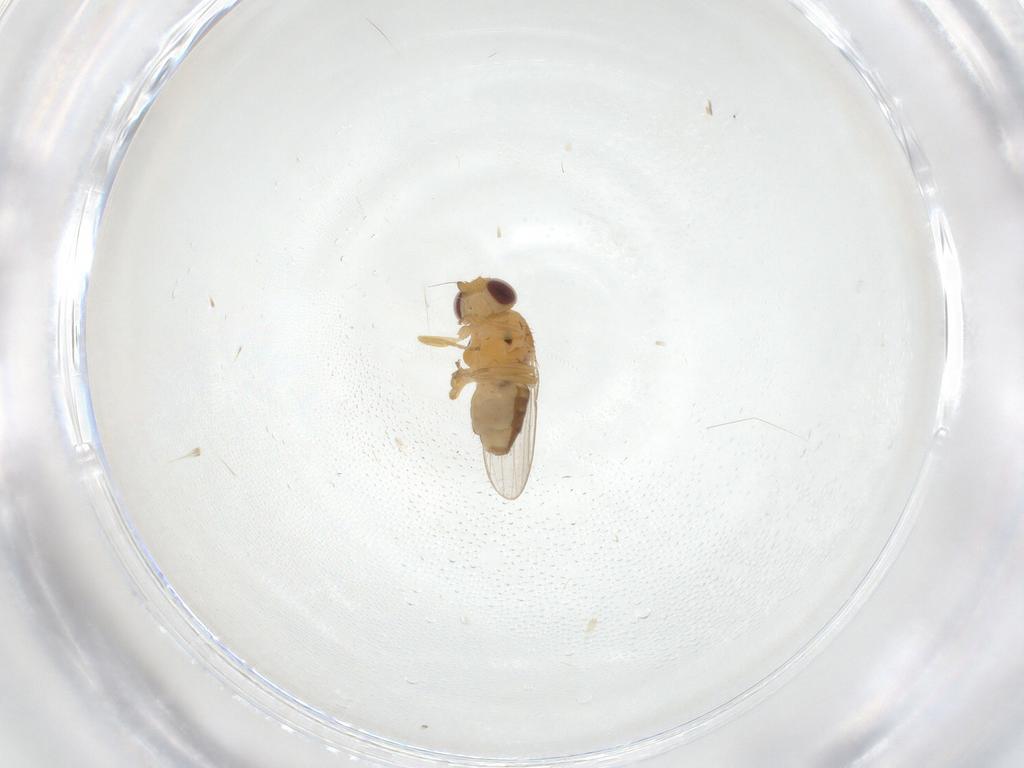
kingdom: Animalia
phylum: Arthropoda
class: Insecta
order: Diptera
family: Chloropidae
